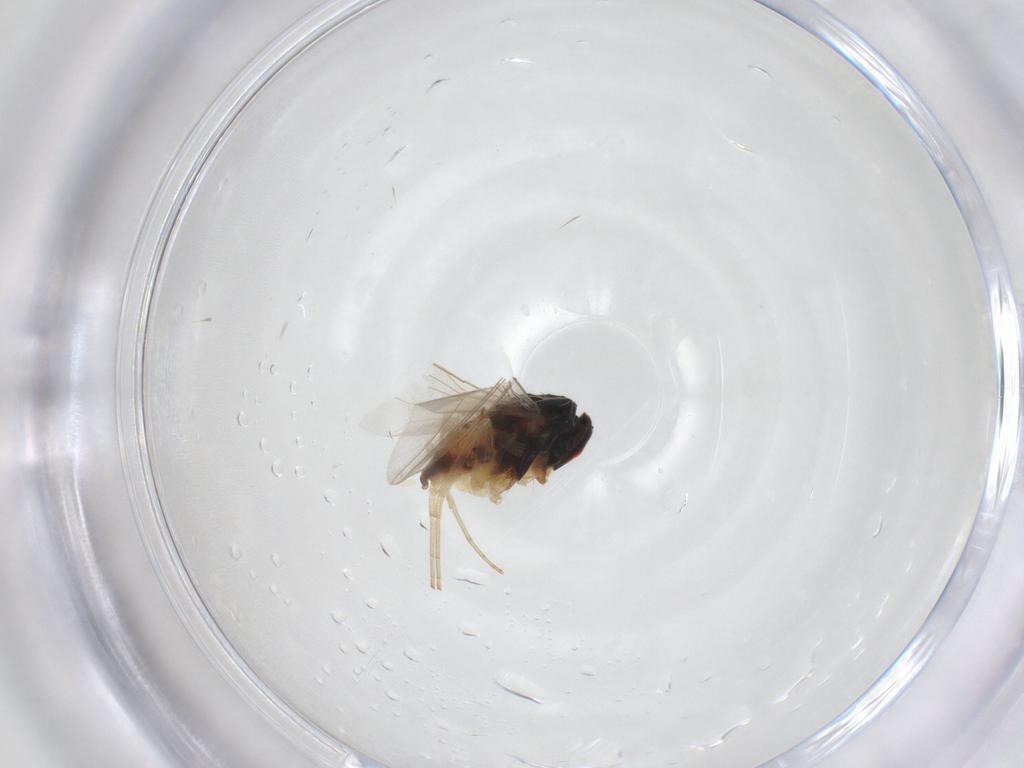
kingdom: Animalia
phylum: Arthropoda
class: Insecta
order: Diptera
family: Dolichopodidae
